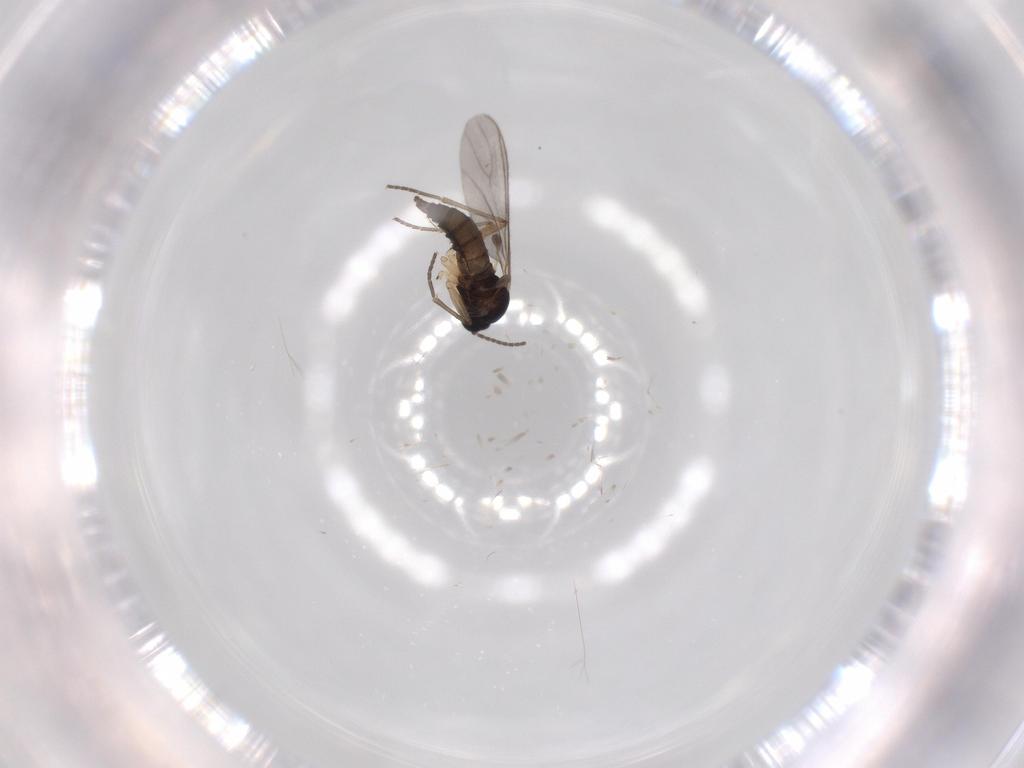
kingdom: Animalia
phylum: Arthropoda
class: Insecta
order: Diptera
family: Sciaridae
